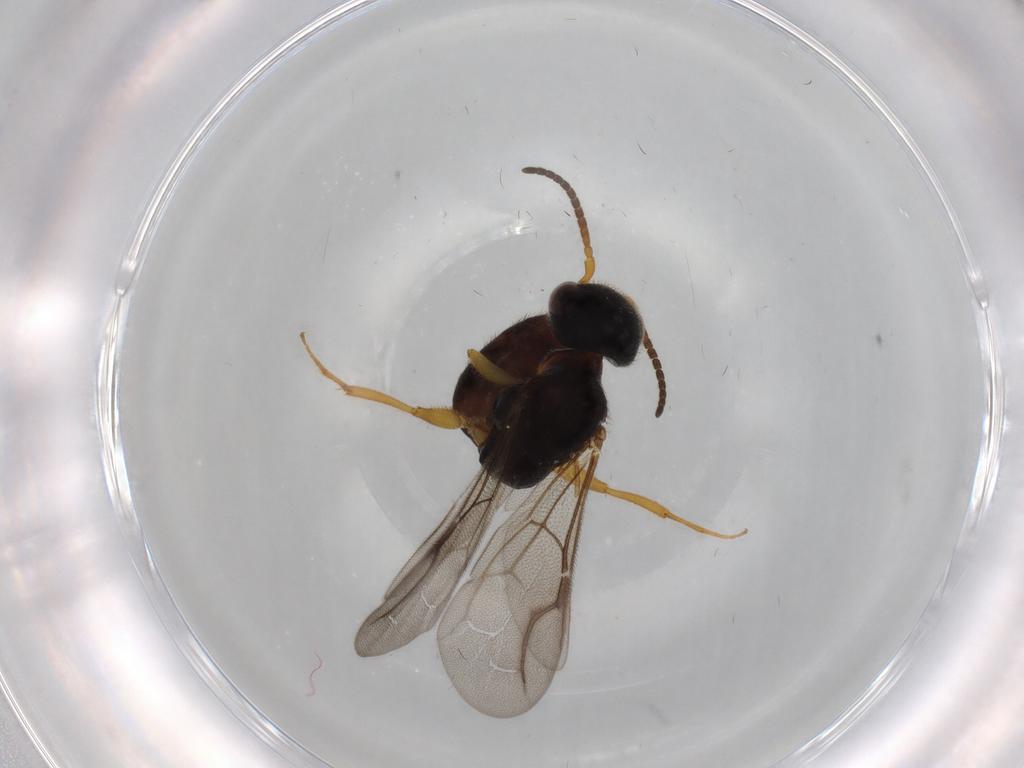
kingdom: Animalia
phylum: Arthropoda
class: Insecta
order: Hymenoptera
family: Bethylidae
